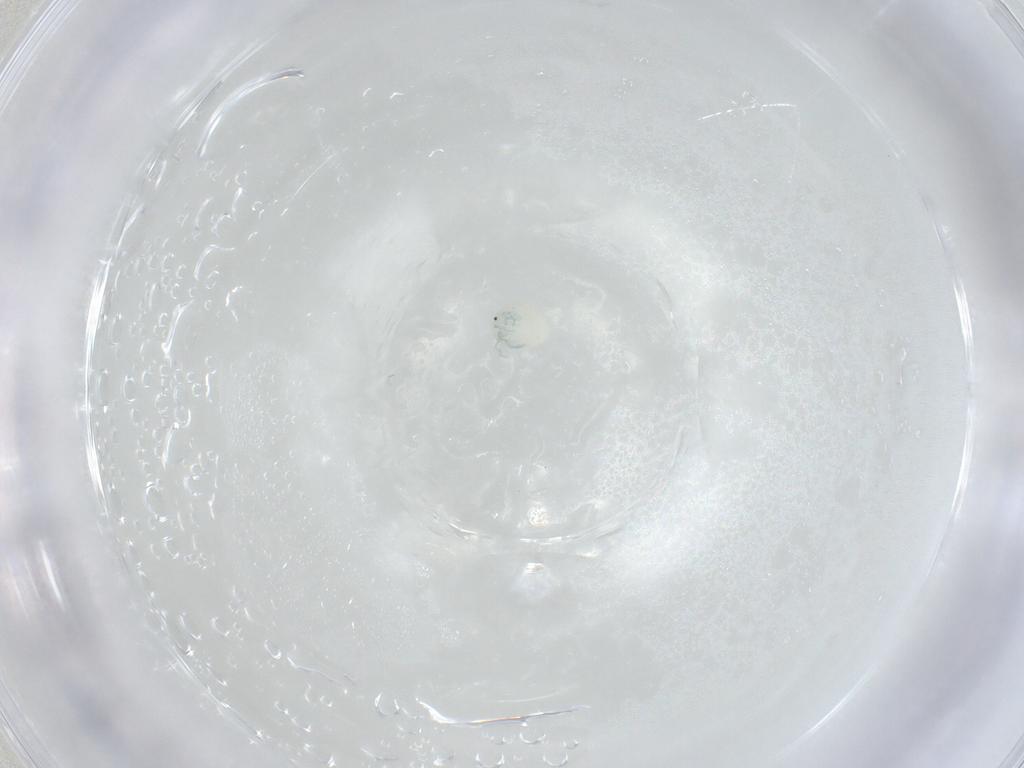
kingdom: Animalia
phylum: Arthropoda
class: Arachnida
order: Trombidiformes
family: Arrenuridae
